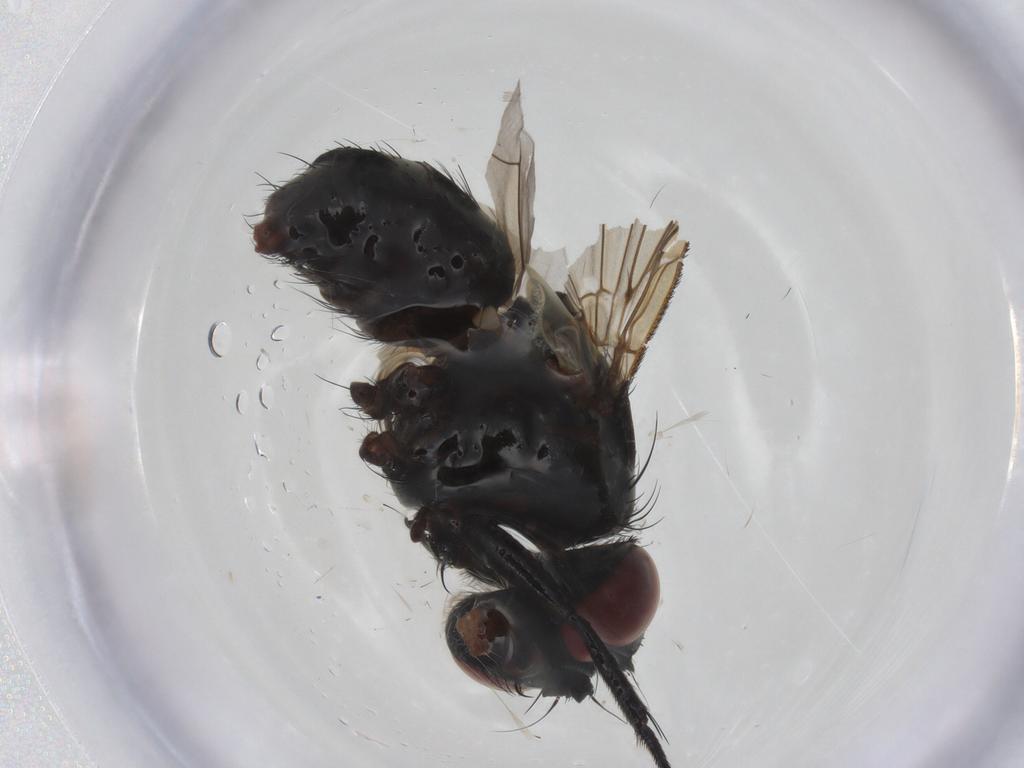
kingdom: Animalia
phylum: Arthropoda
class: Insecta
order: Diptera
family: Tachinidae
